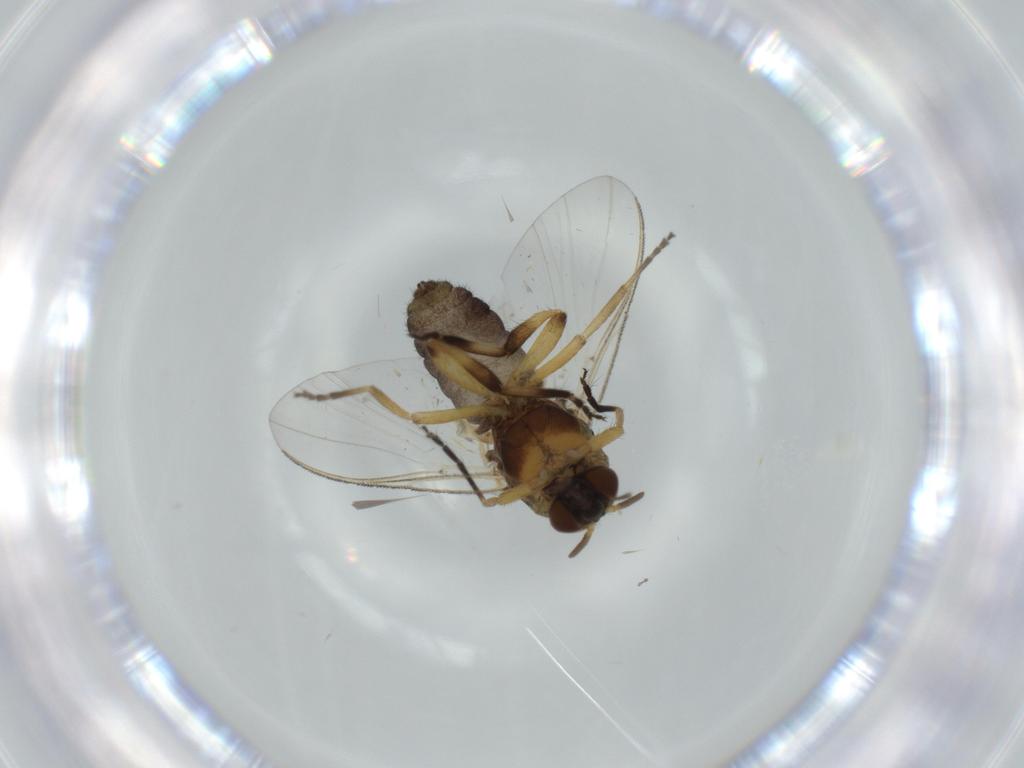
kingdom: Animalia
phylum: Arthropoda
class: Insecta
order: Diptera
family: Simuliidae
